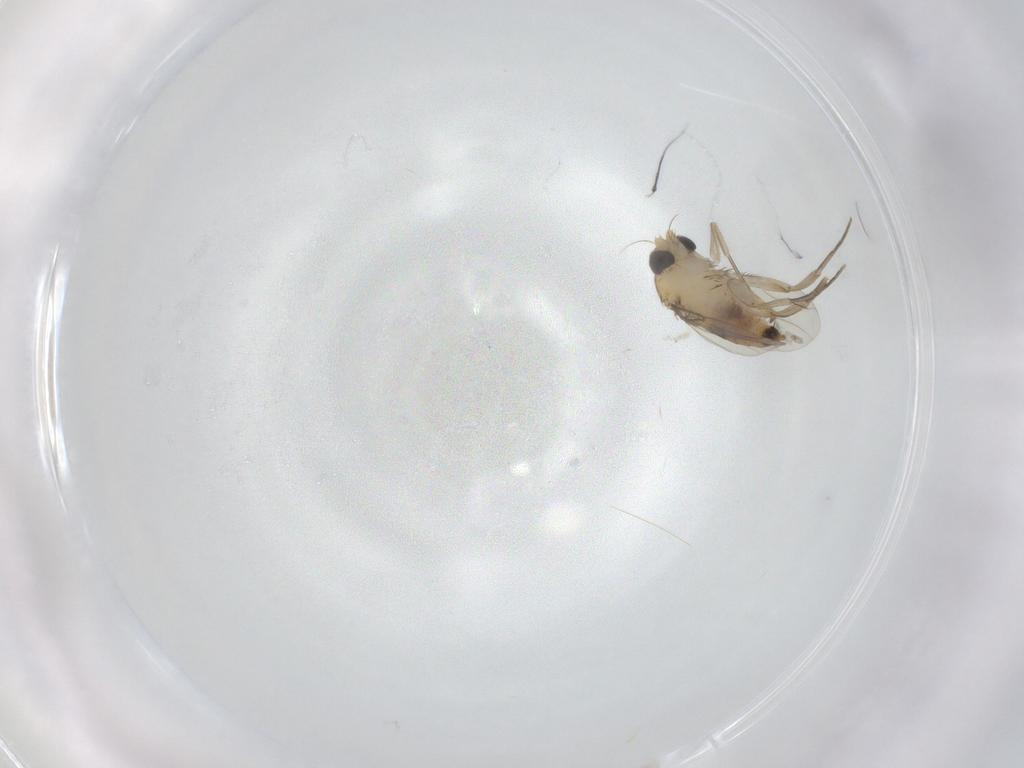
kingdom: Animalia
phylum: Arthropoda
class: Insecta
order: Diptera
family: Phoridae
